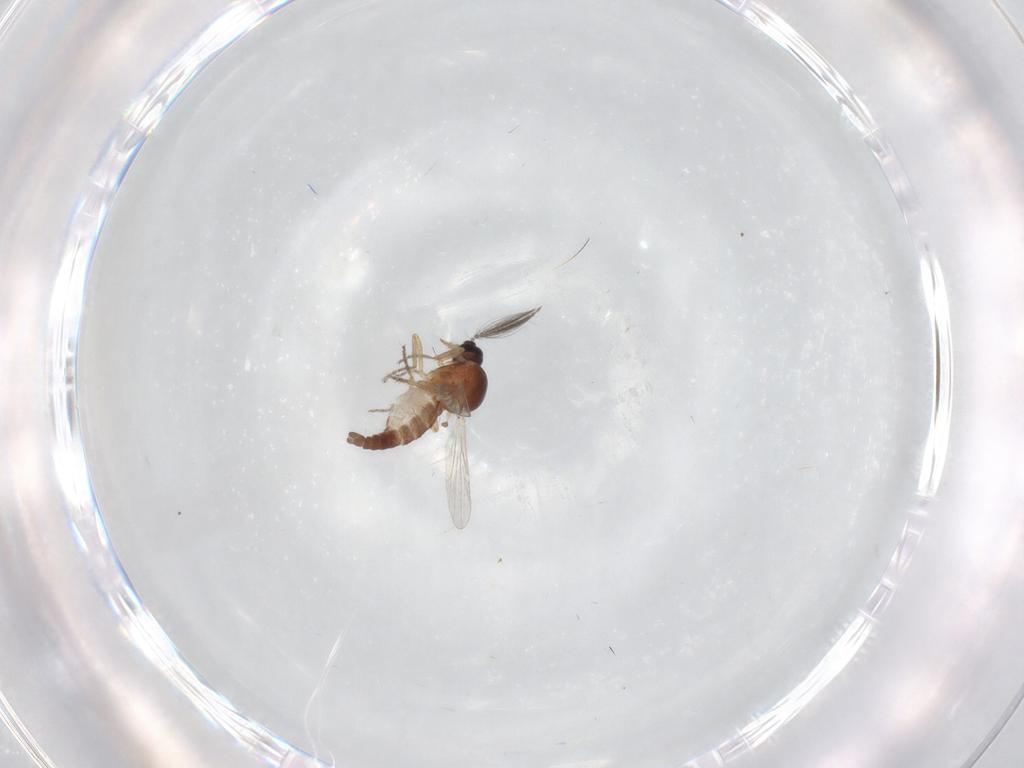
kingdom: Animalia
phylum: Arthropoda
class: Insecta
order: Diptera
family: Ceratopogonidae
